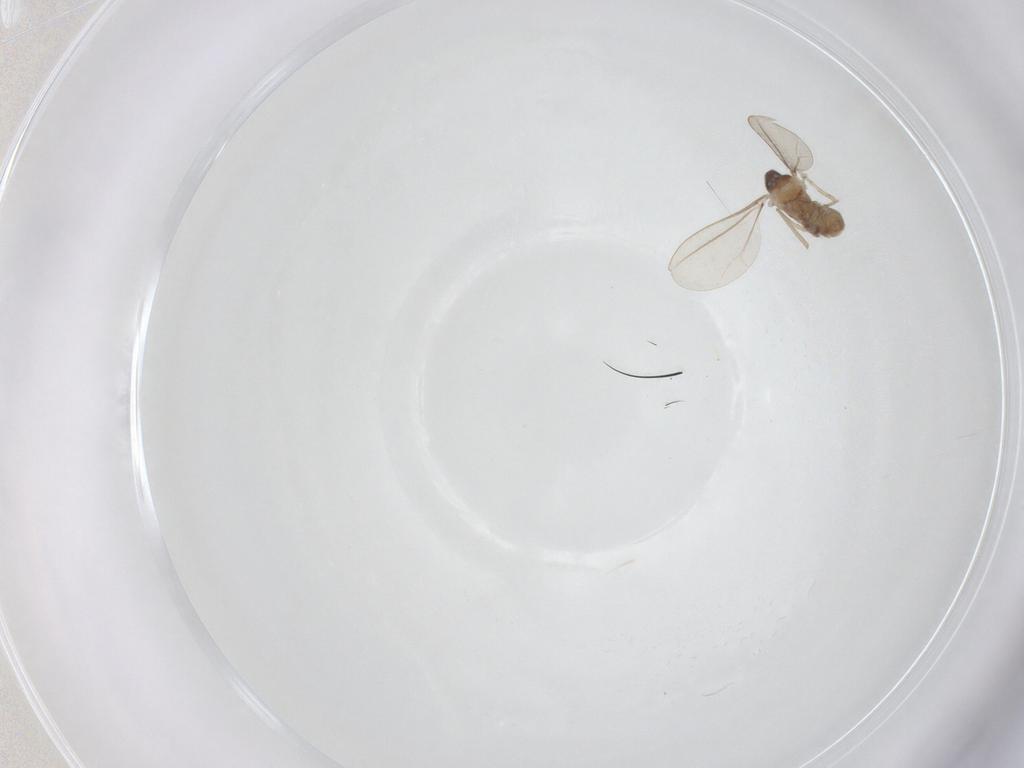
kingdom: Animalia
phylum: Arthropoda
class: Insecta
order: Diptera
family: Cecidomyiidae
